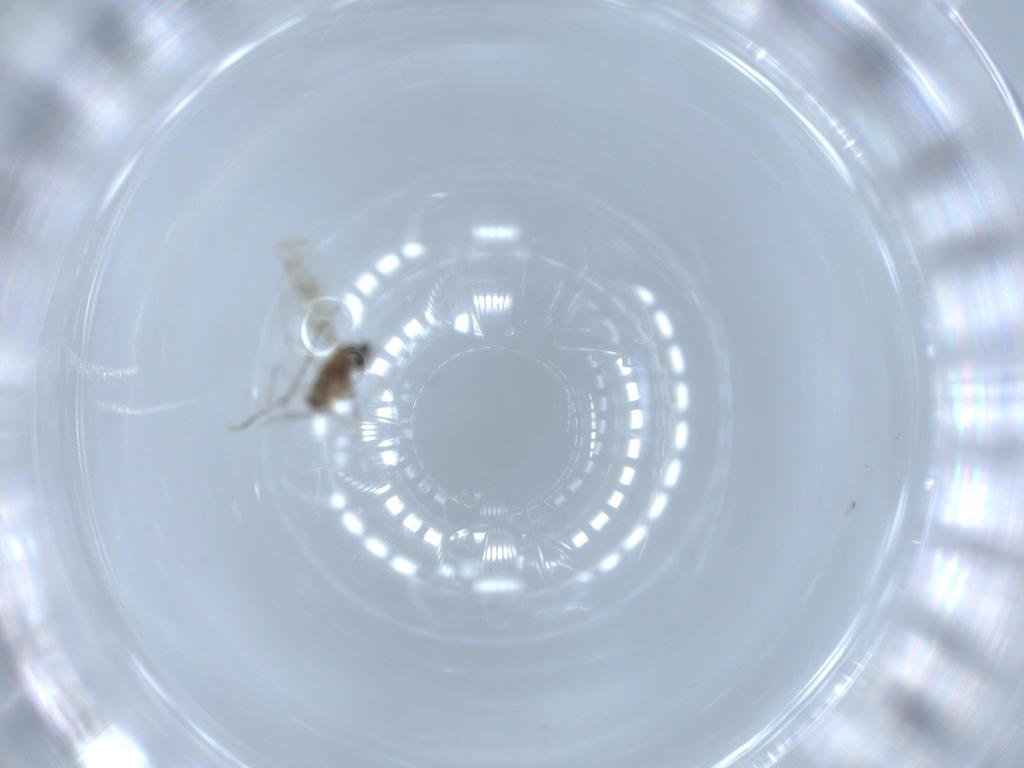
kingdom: Animalia
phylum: Arthropoda
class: Insecta
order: Diptera
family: Cecidomyiidae
